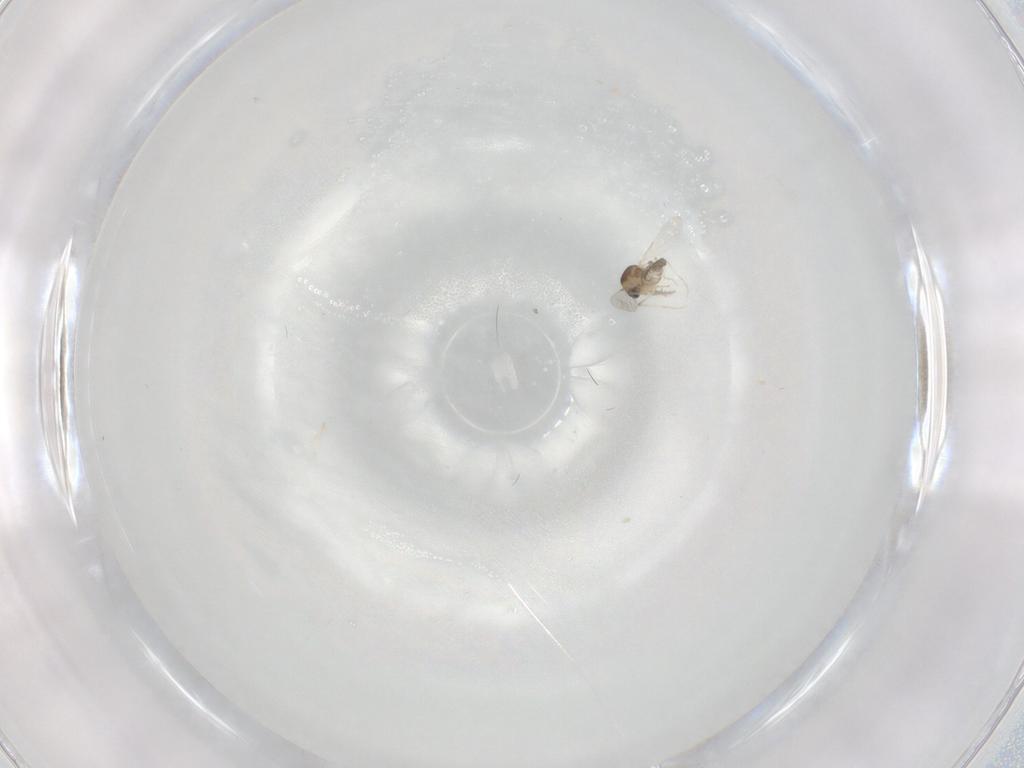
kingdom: Animalia
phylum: Arthropoda
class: Insecta
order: Diptera
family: Ceratopogonidae
